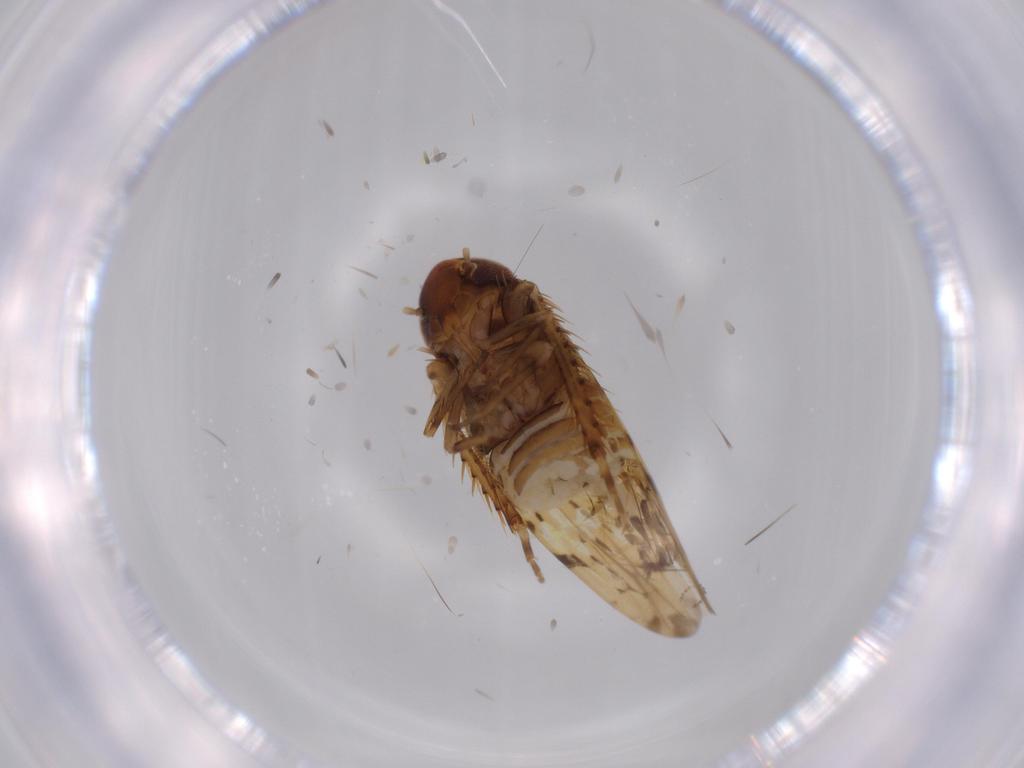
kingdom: Animalia
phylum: Arthropoda
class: Insecta
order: Hemiptera
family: Cicadellidae
